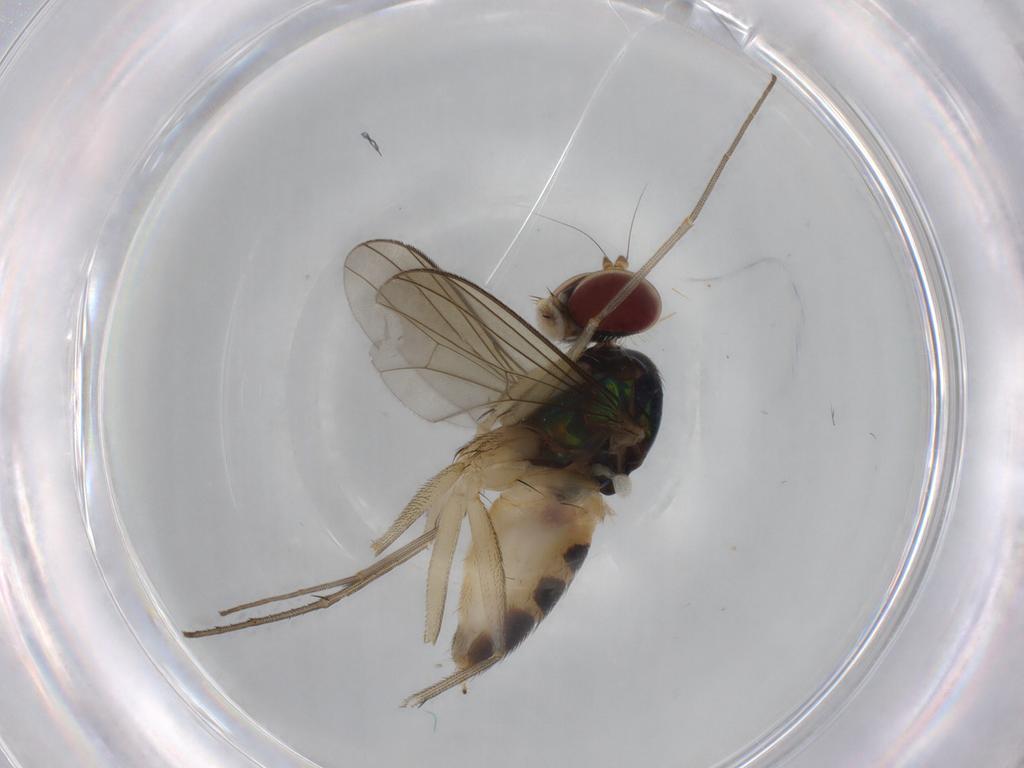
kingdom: Animalia
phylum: Arthropoda
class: Insecta
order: Diptera
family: Dolichopodidae
